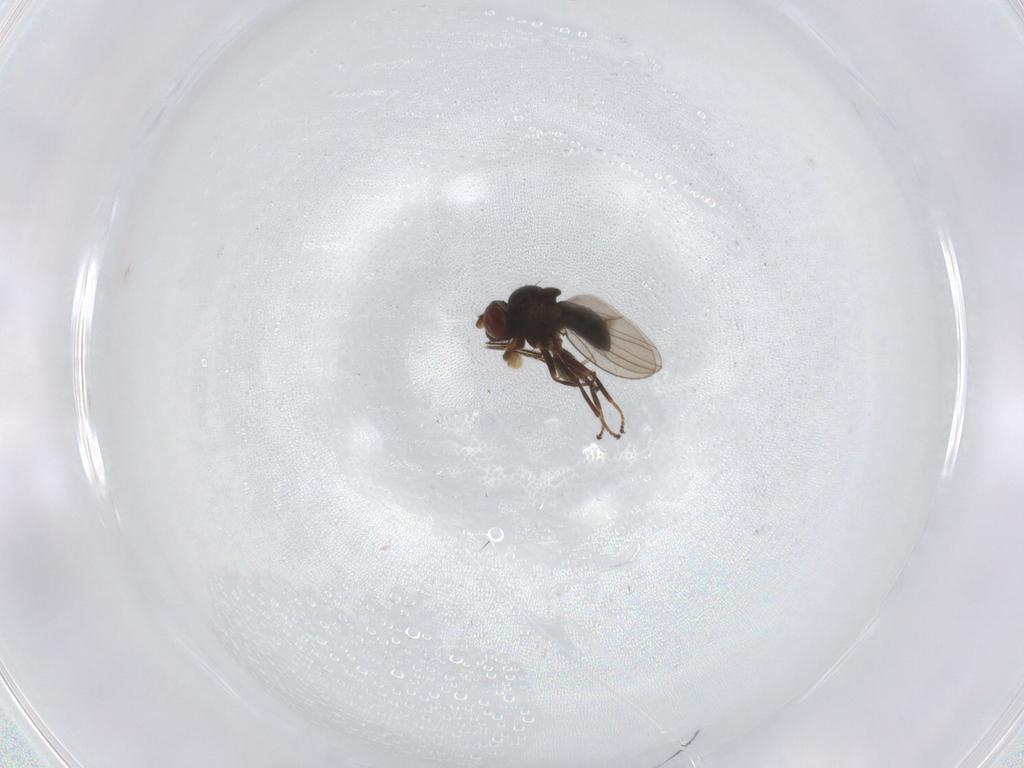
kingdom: Animalia
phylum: Arthropoda
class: Insecta
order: Diptera
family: Ephydridae
